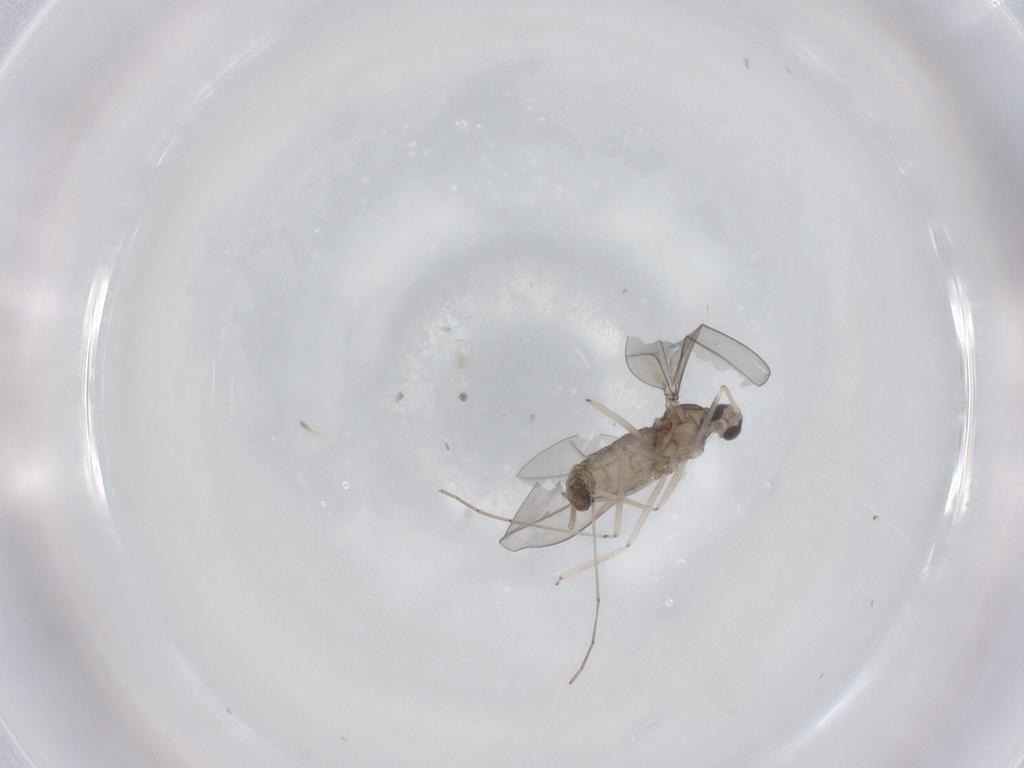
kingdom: Animalia
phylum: Arthropoda
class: Insecta
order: Diptera
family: Cecidomyiidae
